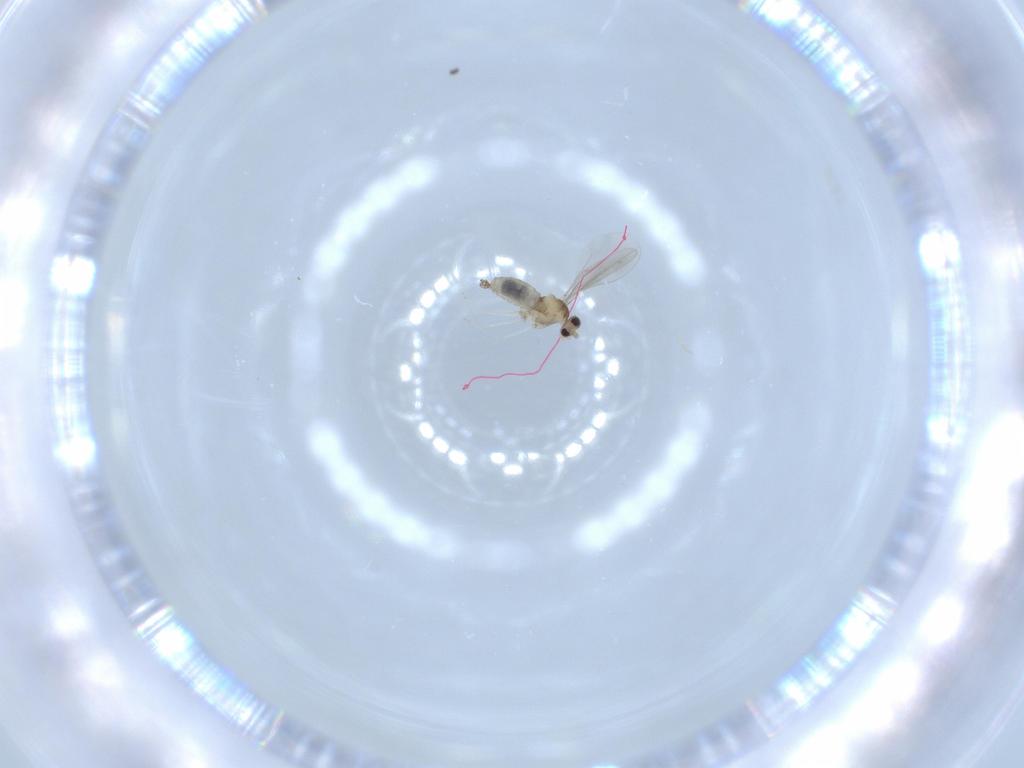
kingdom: Animalia
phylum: Arthropoda
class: Insecta
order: Diptera
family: Cecidomyiidae
